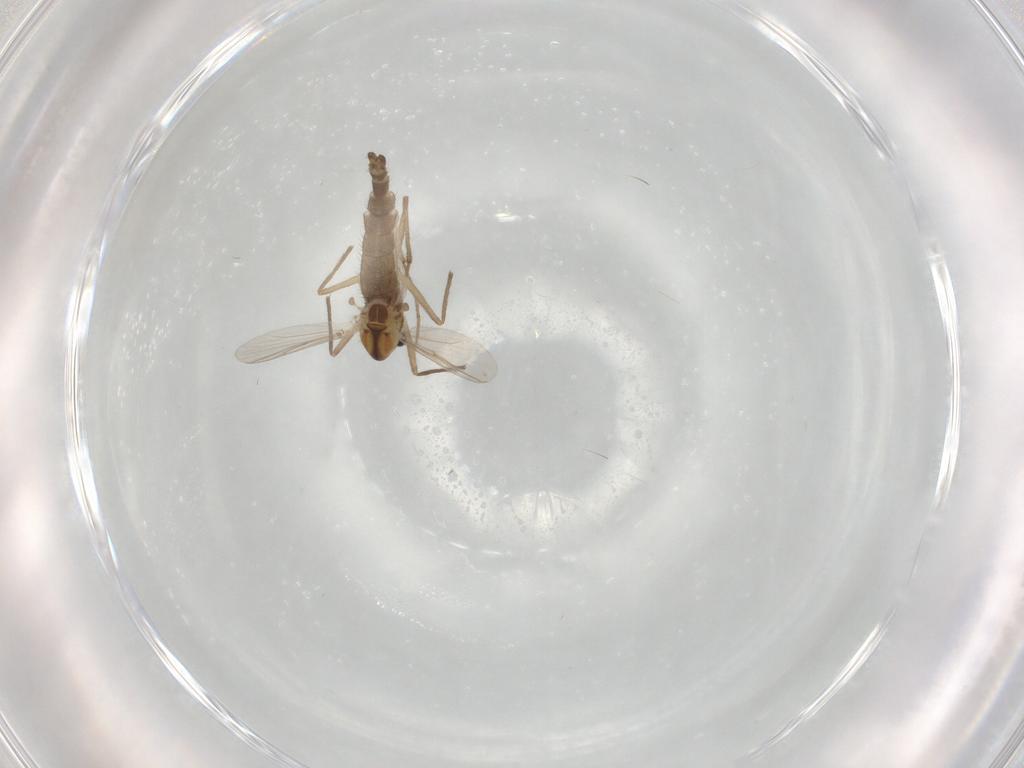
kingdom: Animalia
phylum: Arthropoda
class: Insecta
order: Diptera
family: Chironomidae
